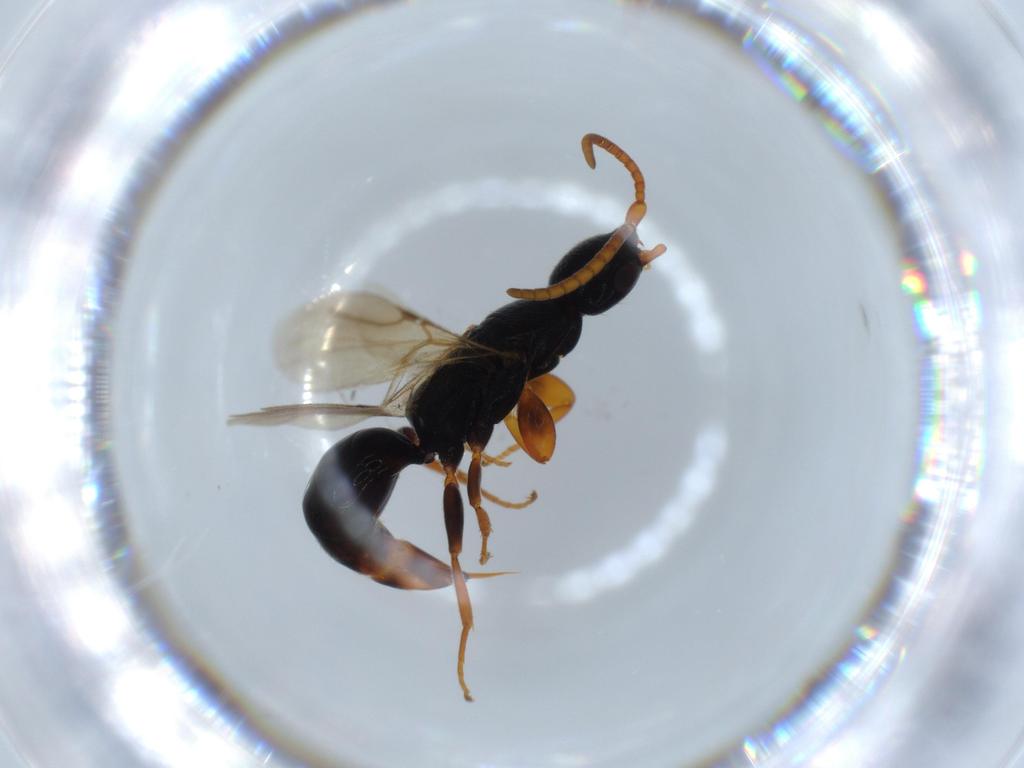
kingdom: Animalia
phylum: Arthropoda
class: Insecta
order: Hymenoptera
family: Bethylidae
